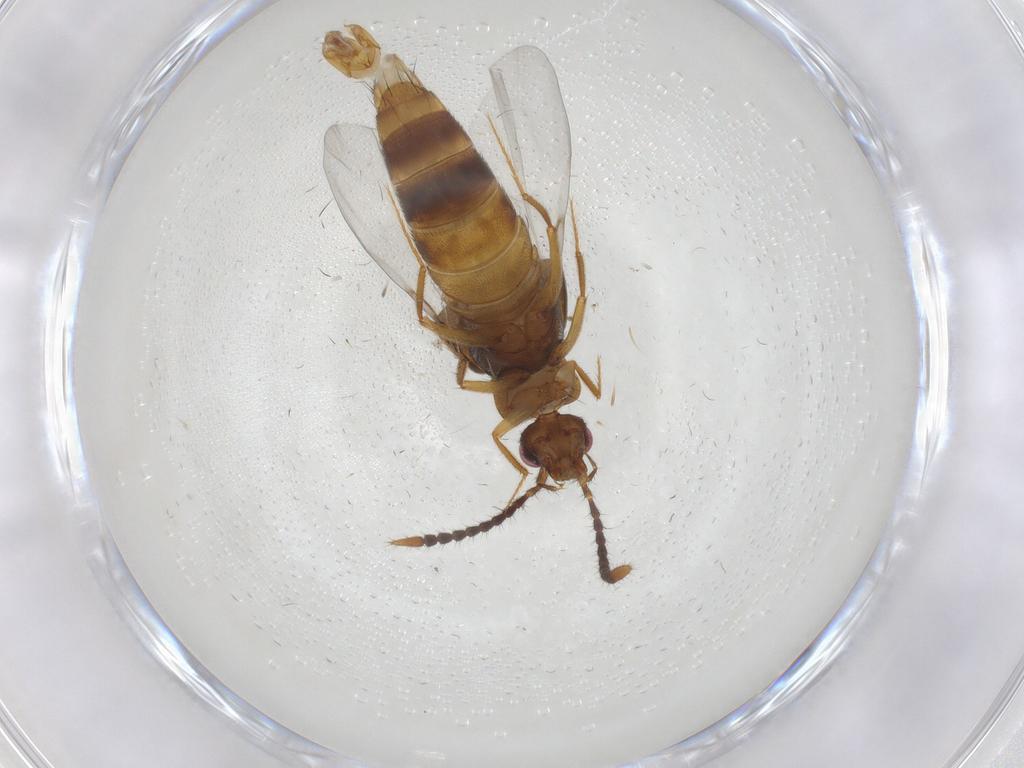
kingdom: Animalia
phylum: Arthropoda
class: Insecta
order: Coleoptera
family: Staphylinidae
